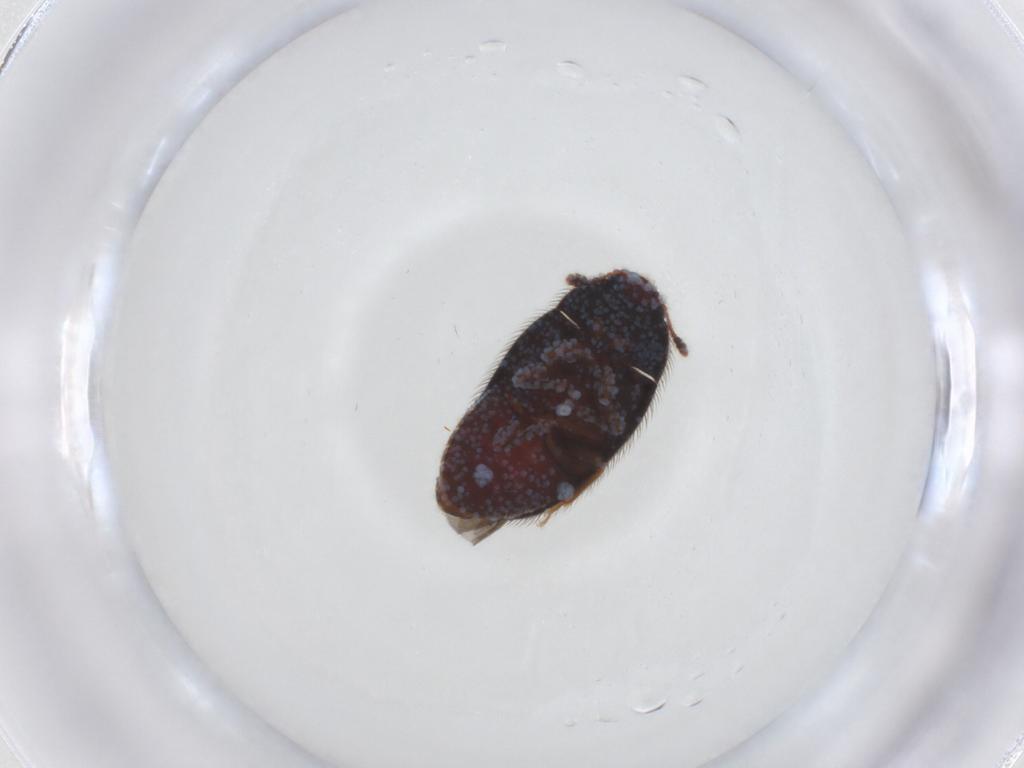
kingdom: Animalia
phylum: Arthropoda
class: Insecta
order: Coleoptera
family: Biphyllidae
